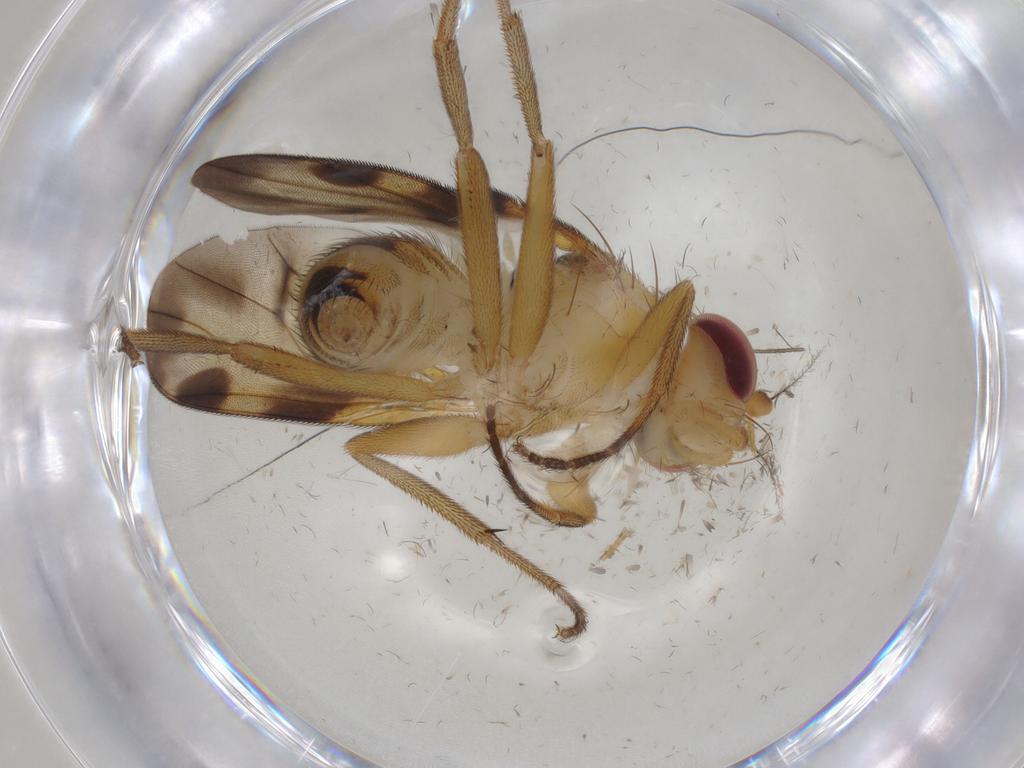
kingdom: Animalia
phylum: Arthropoda
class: Insecta
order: Diptera
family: Clusiidae
